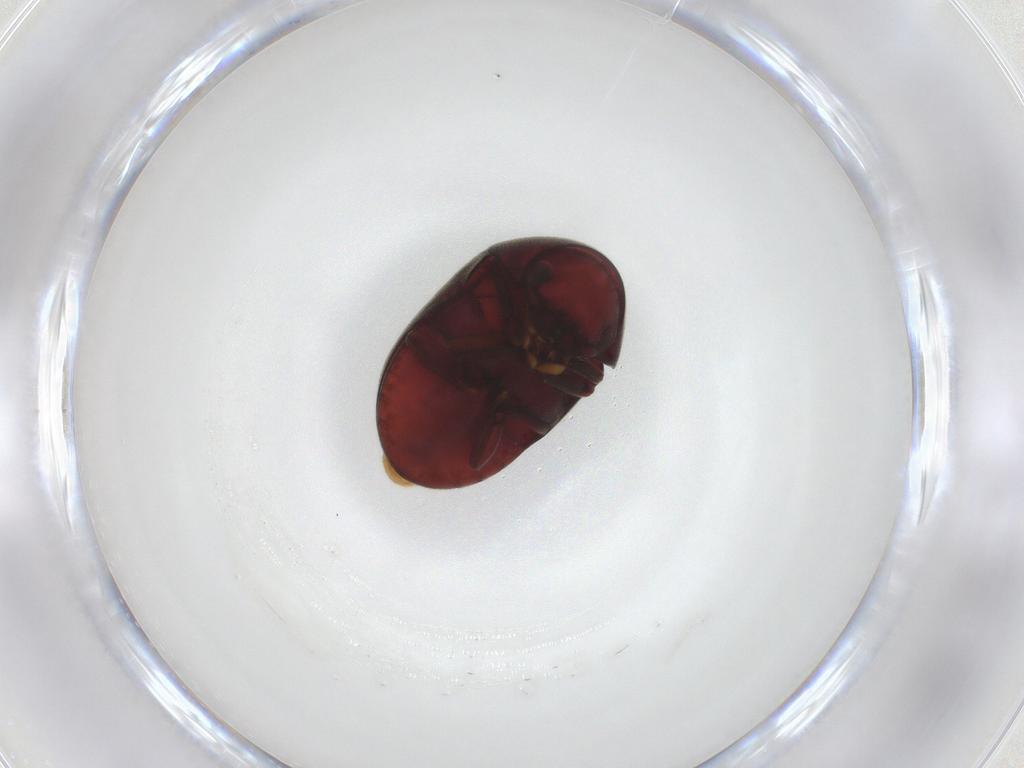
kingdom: Animalia
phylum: Arthropoda
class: Insecta
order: Coleoptera
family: Ptinidae
